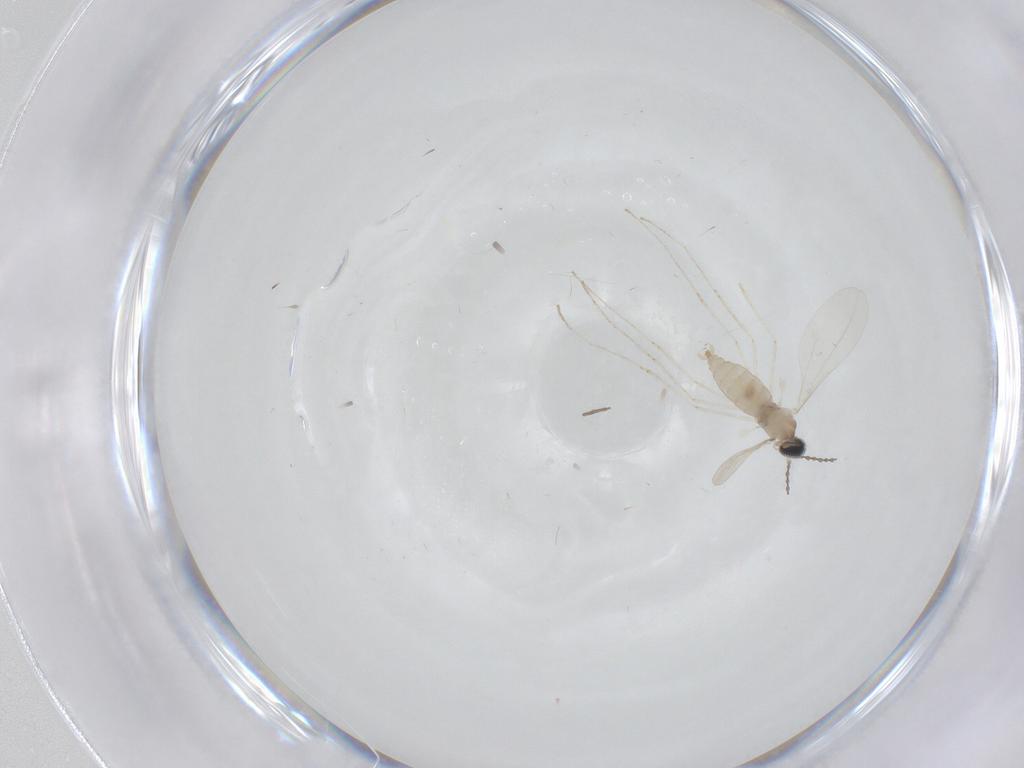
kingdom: Animalia
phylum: Arthropoda
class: Insecta
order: Diptera
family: Cecidomyiidae
